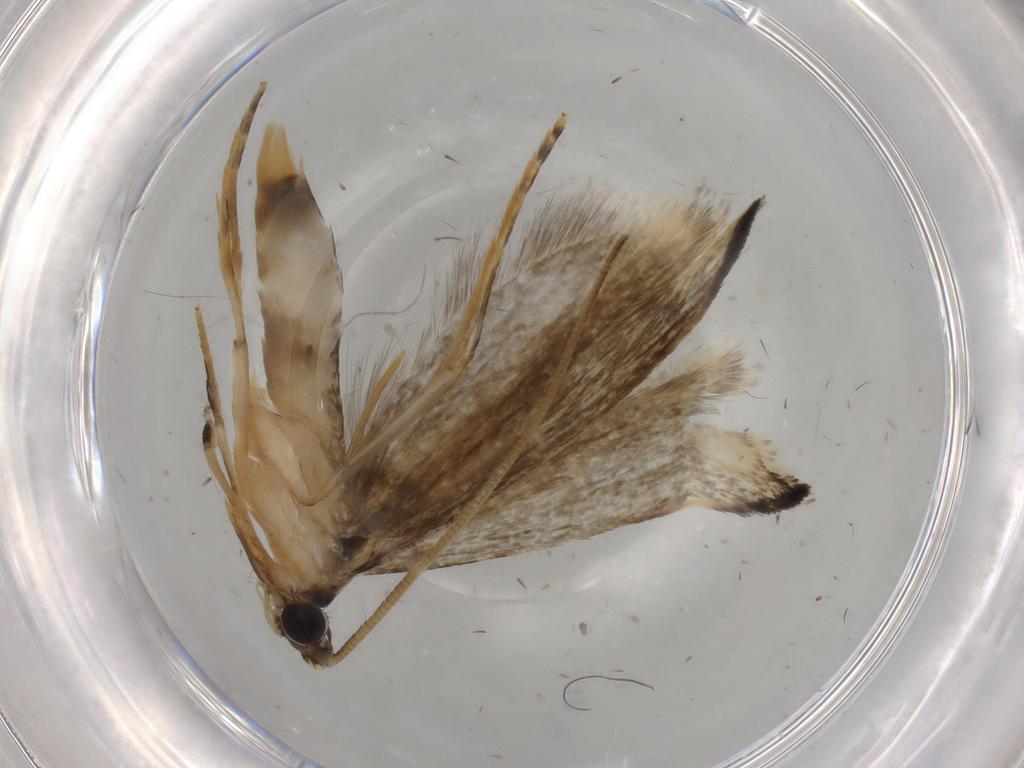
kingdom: Animalia
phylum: Arthropoda
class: Insecta
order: Lepidoptera
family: Tineidae
